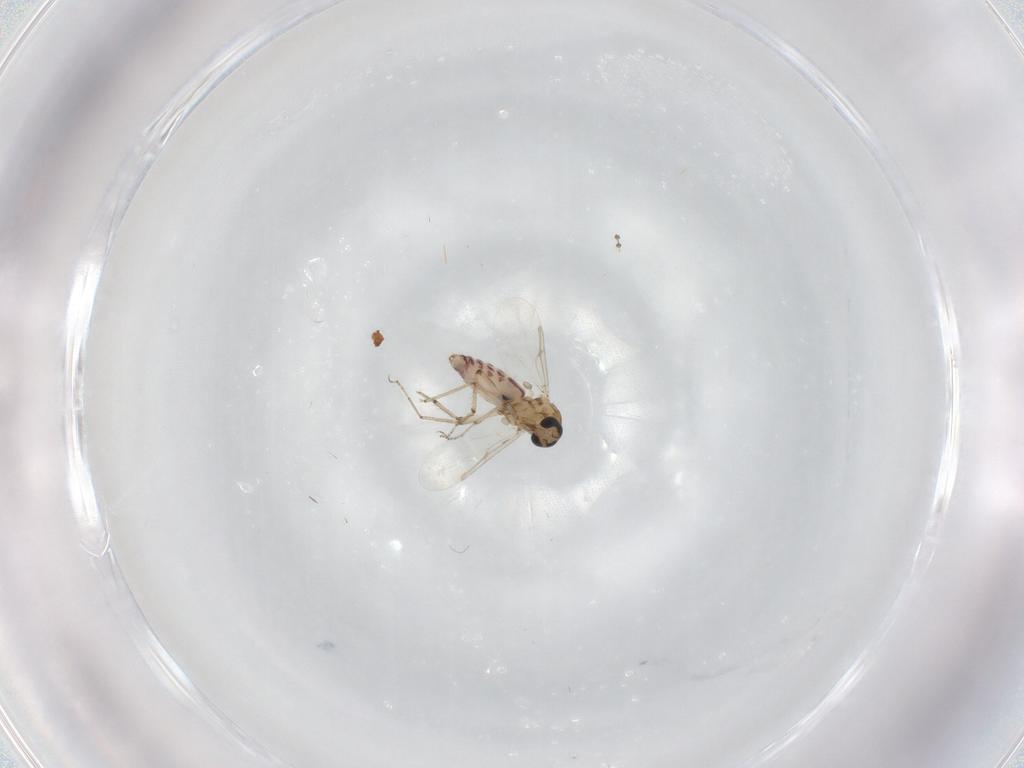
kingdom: Animalia
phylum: Arthropoda
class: Insecta
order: Diptera
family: Ceratopogonidae
